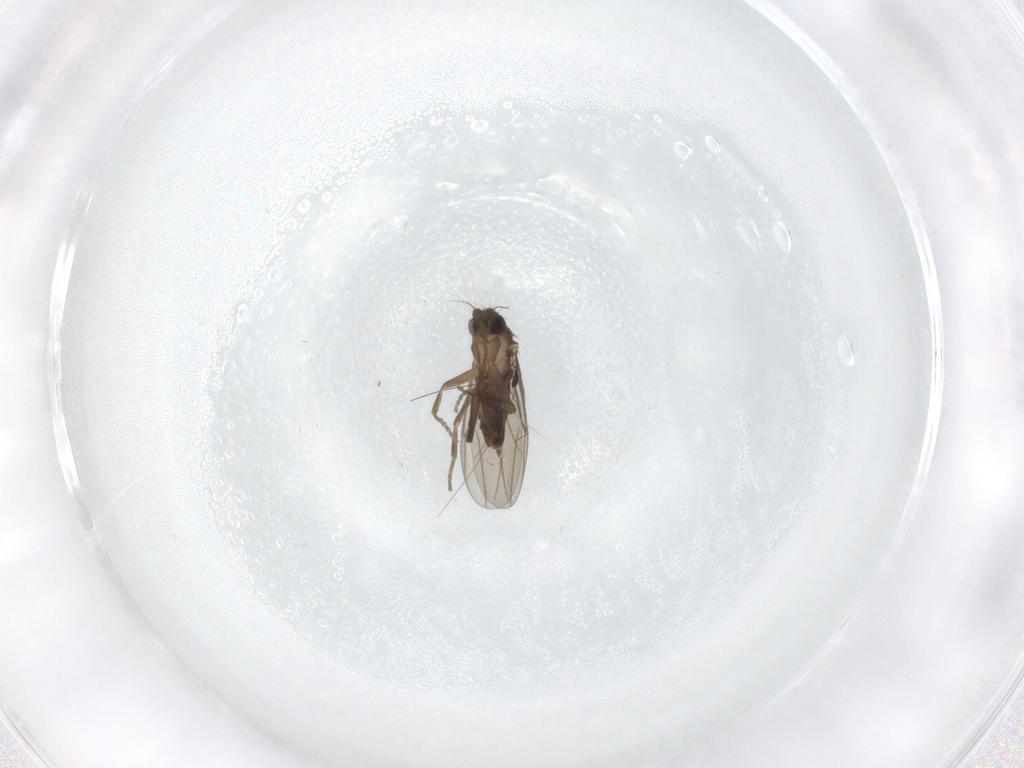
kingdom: Animalia
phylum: Arthropoda
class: Insecta
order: Diptera
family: Phoridae
